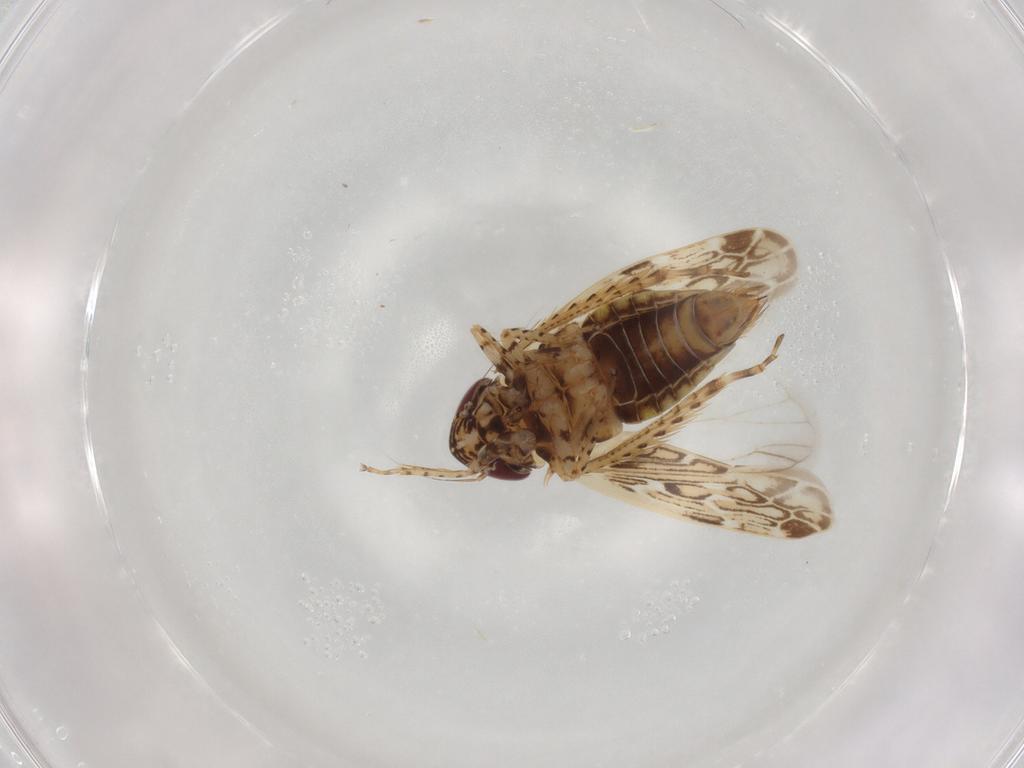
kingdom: Animalia
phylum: Arthropoda
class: Insecta
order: Hemiptera
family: Cicadellidae
